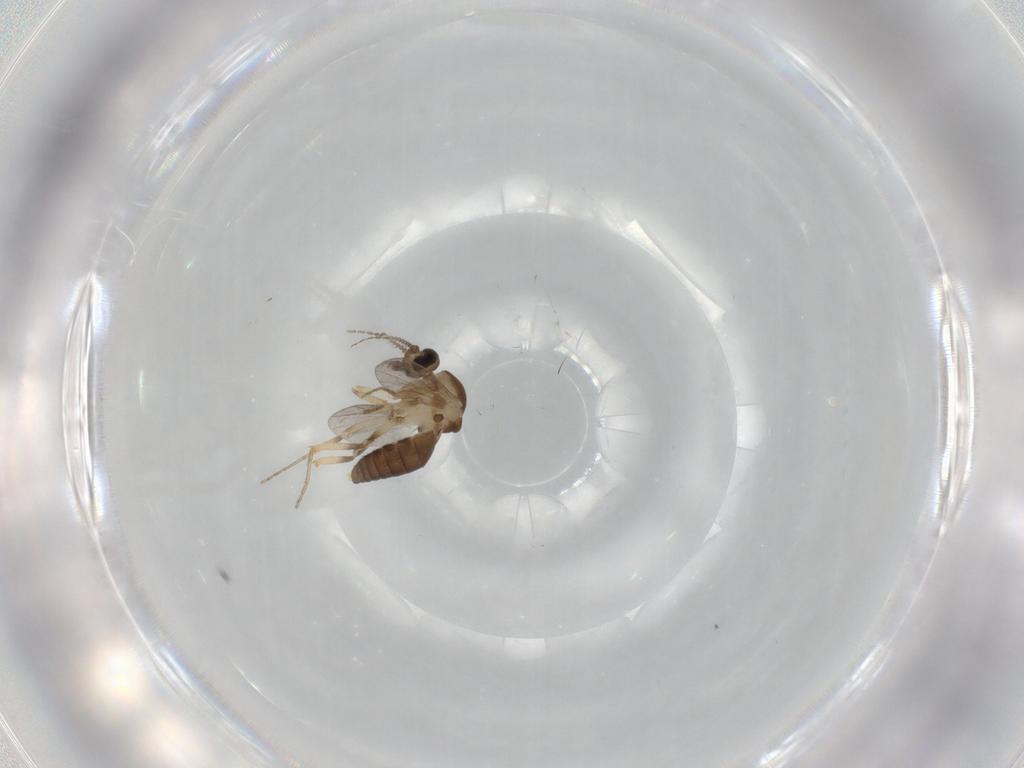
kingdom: Animalia
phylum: Arthropoda
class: Insecta
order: Diptera
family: Ceratopogonidae
